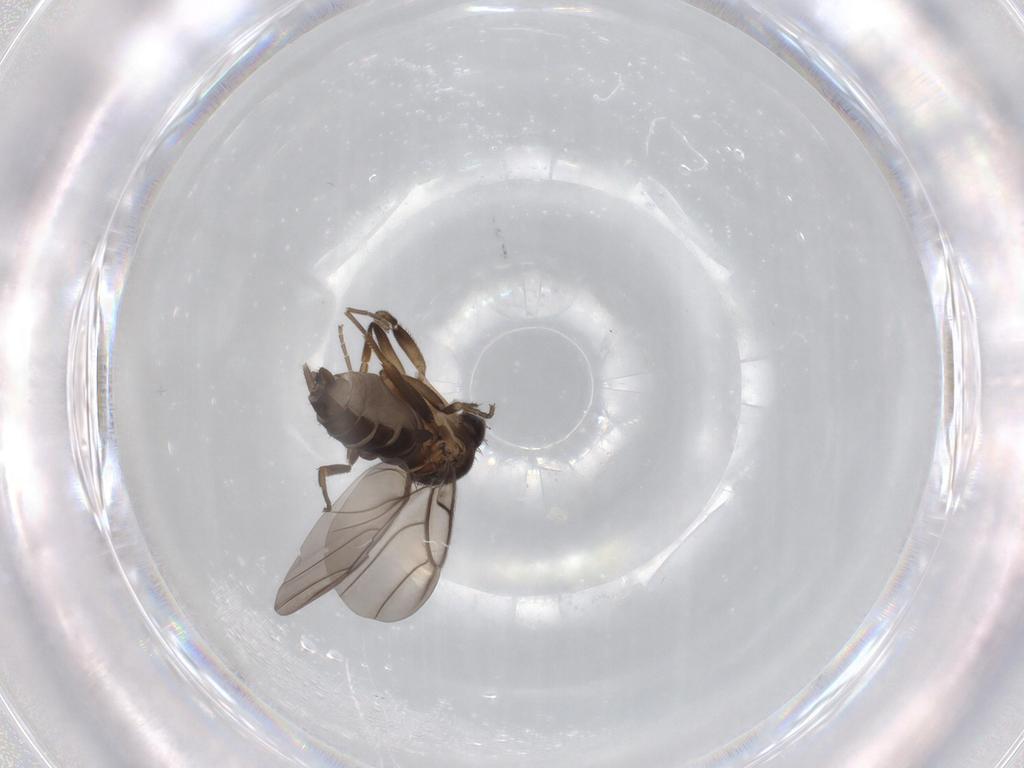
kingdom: Animalia
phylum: Arthropoda
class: Insecta
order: Diptera
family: Phoridae
